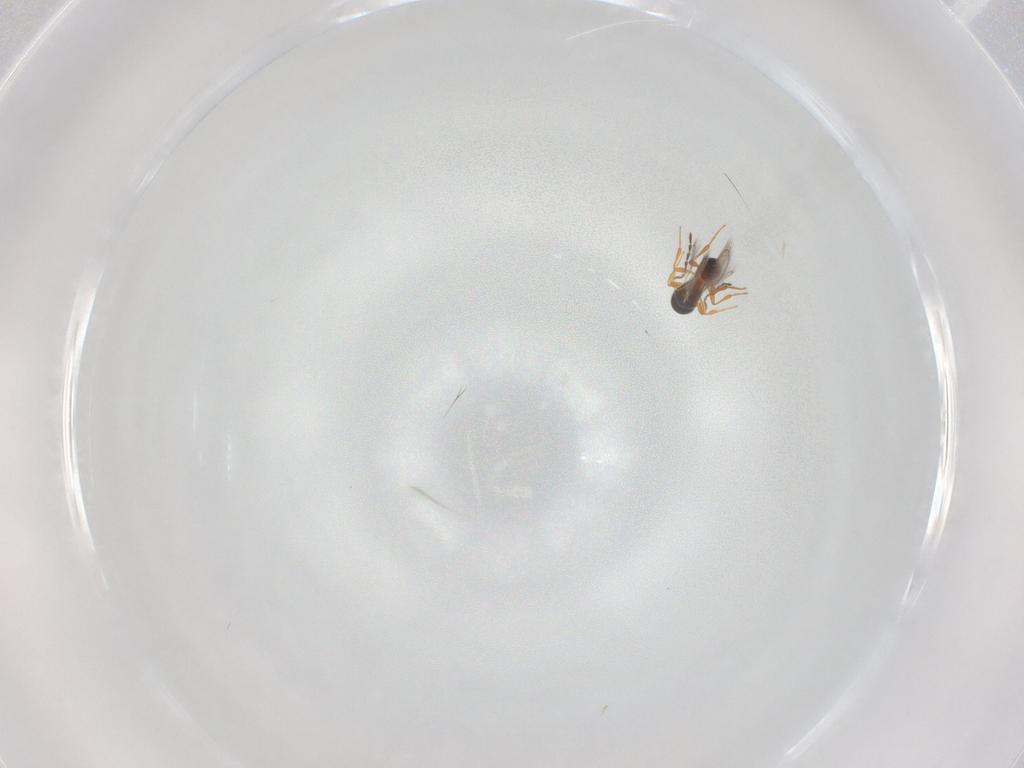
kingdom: Animalia
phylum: Arthropoda
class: Insecta
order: Hymenoptera
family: Platygastridae
